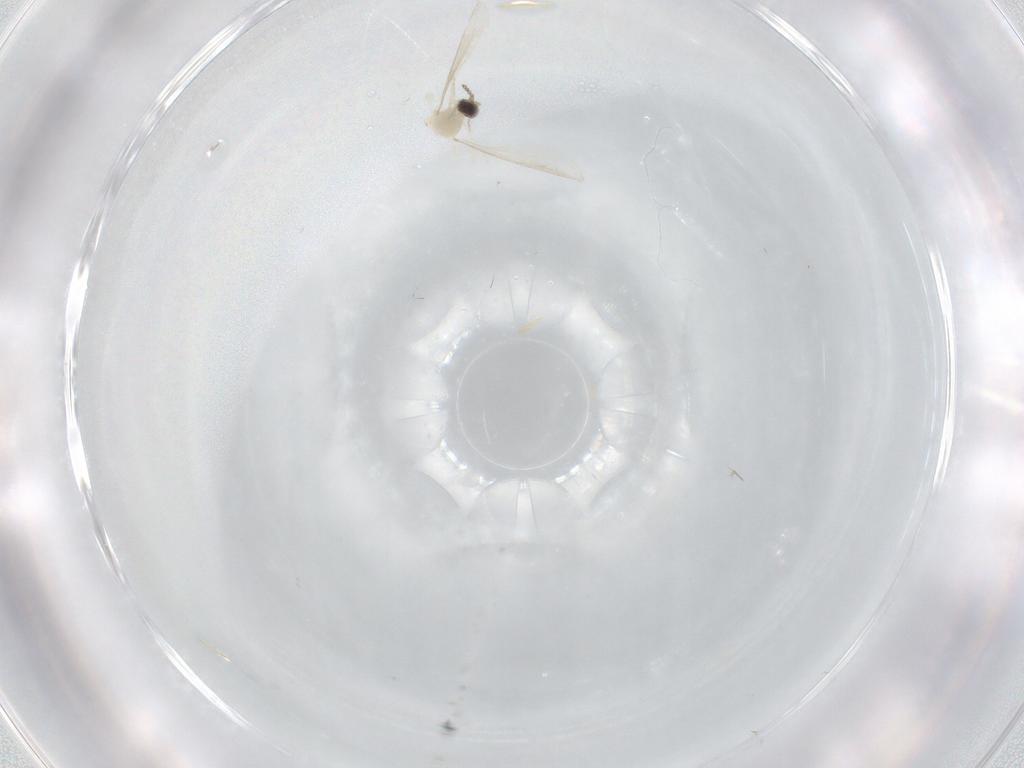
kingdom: Animalia
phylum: Arthropoda
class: Insecta
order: Diptera
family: Cecidomyiidae
